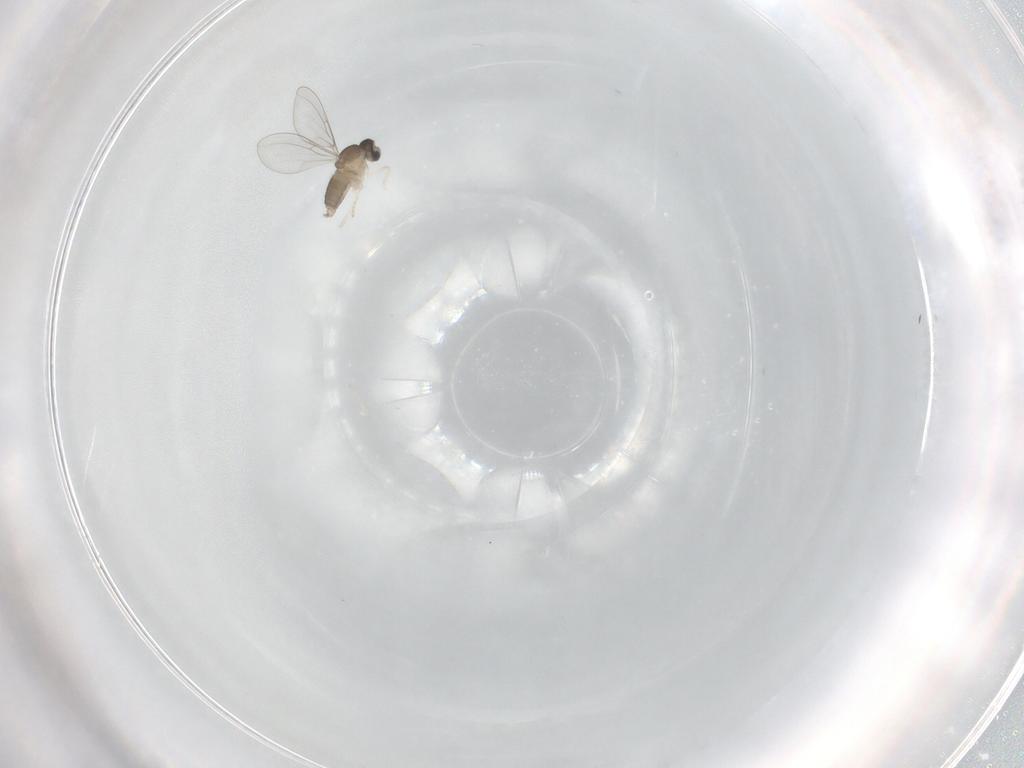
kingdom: Animalia
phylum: Arthropoda
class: Insecta
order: Diptera
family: Cecidomyiidae
